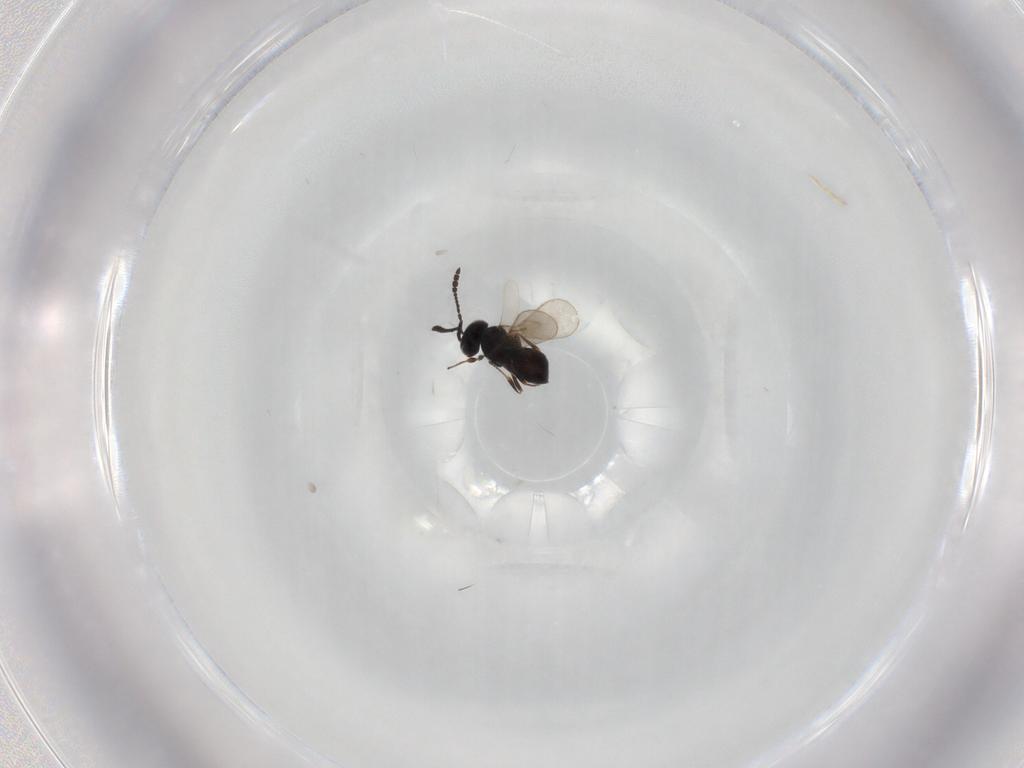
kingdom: Animalia
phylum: Arthropoda
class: Insecta
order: Hymenoptera
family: Scelionidae
